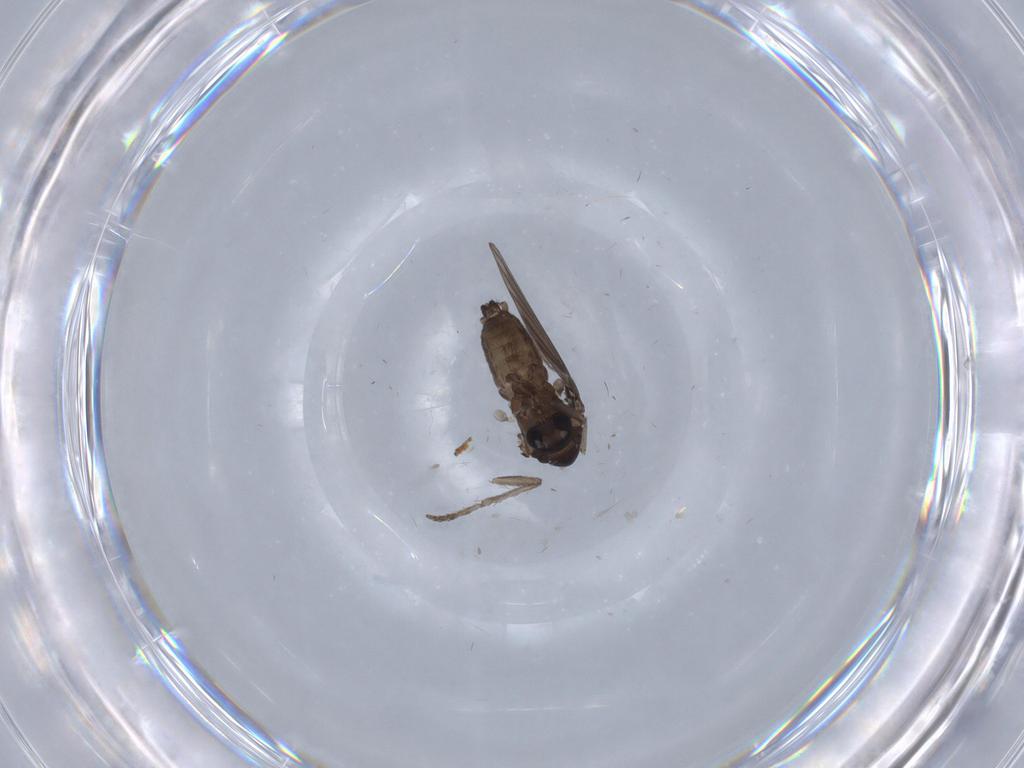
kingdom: Animalia
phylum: Arthropoda
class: Insecta
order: Diptera
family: Psychodidae
